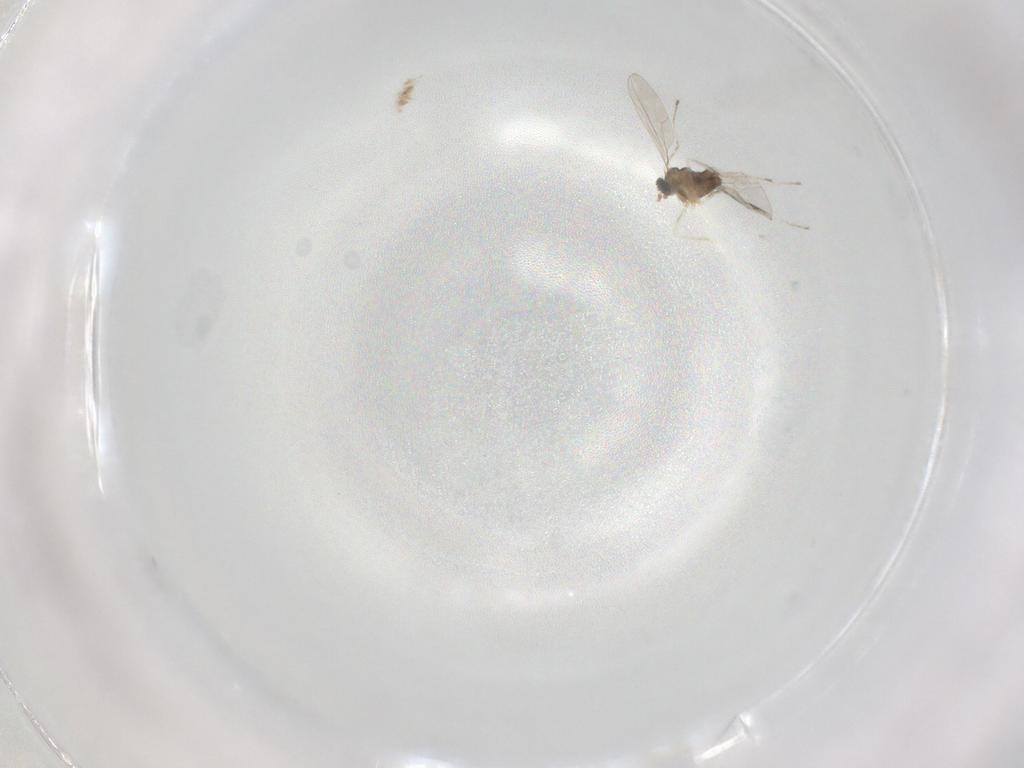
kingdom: Animalia
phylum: Arthropoda
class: Insecta
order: Diptera
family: Cecidomyiidae
